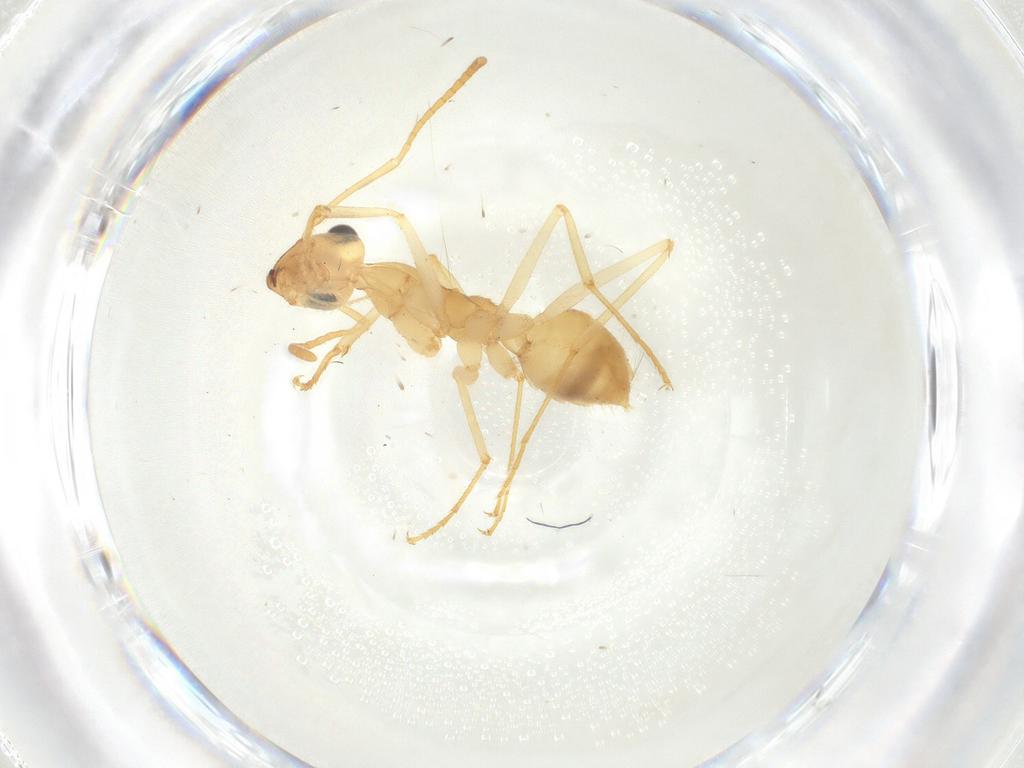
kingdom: Animalia
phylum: Arthropoda
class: Insecta
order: Hymenoptera
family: Formicidae
